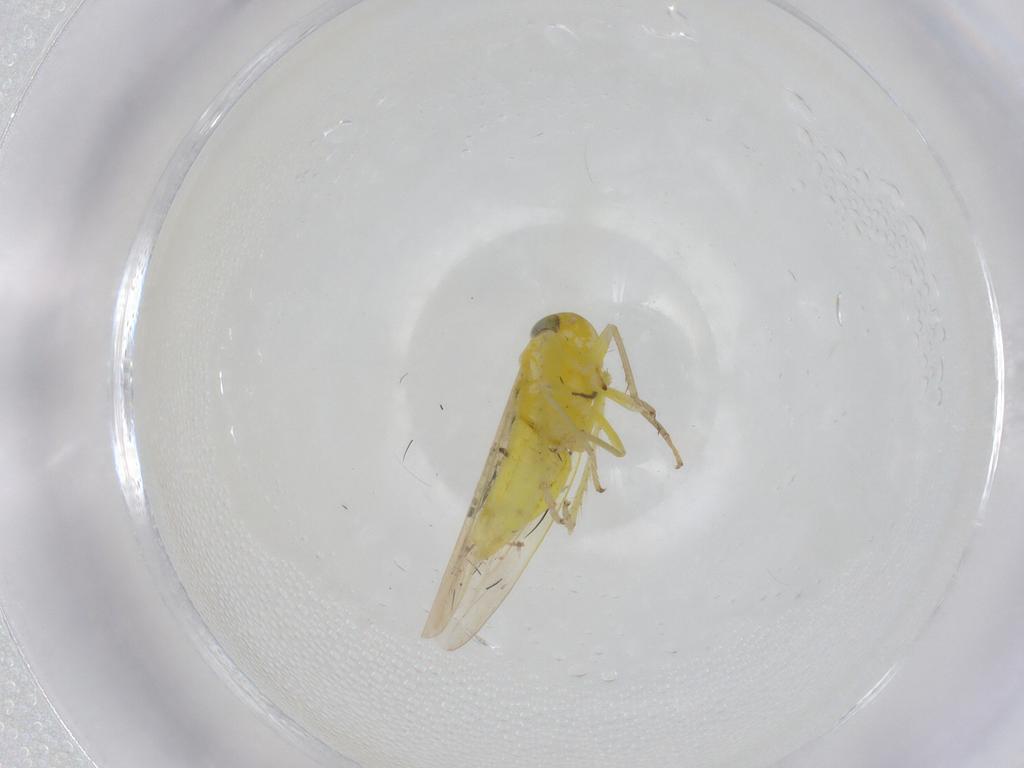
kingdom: Animalia
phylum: Arthropoda
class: Insecta
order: Hemiptera
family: Cicadellidae
